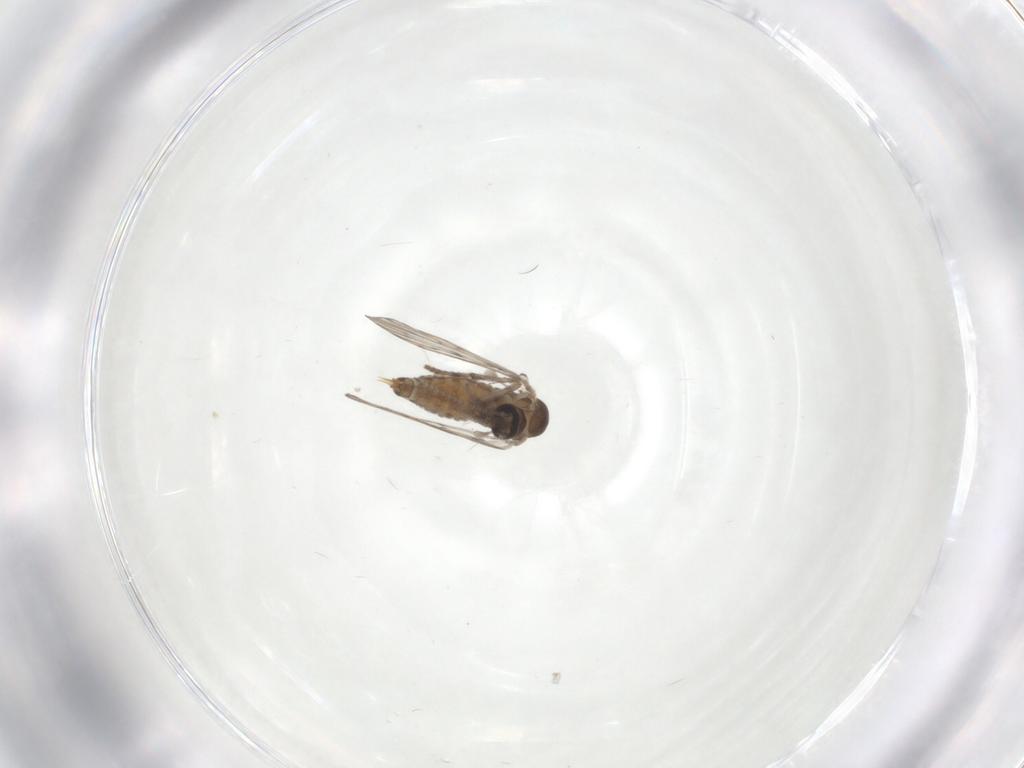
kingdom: Animalia
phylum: Arthropoda
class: Insecta
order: Diptera
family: Psychodidae
